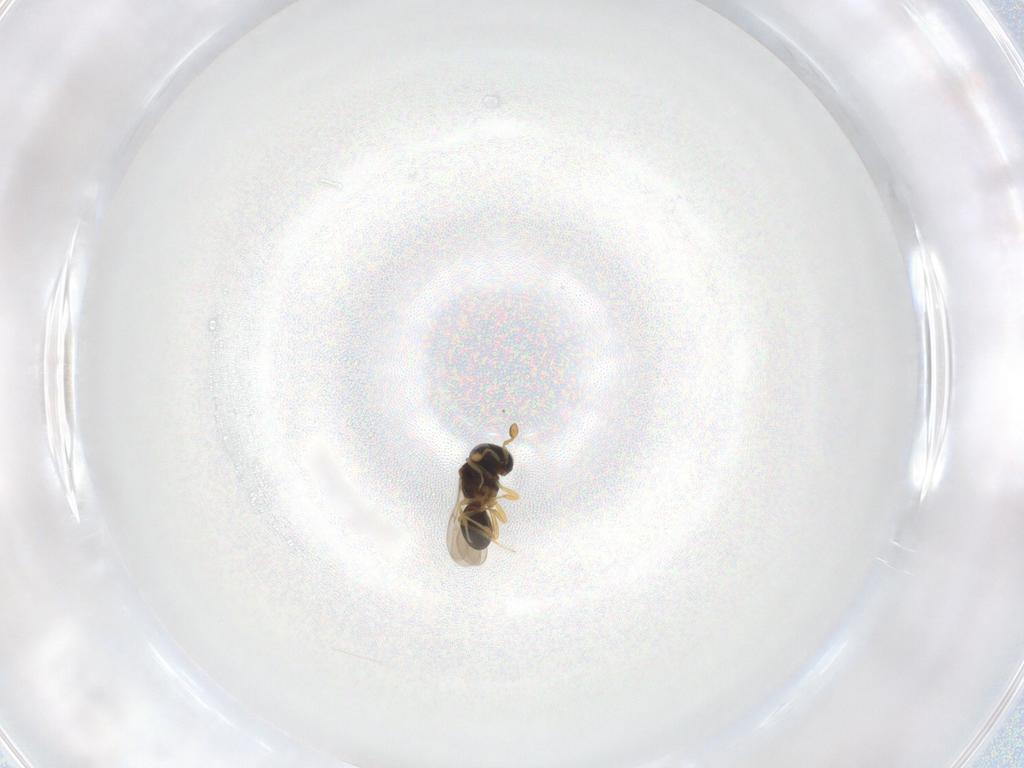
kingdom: Animalia
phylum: Arthropoda
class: Insecta
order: Hymenoptera
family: Scelionidae
